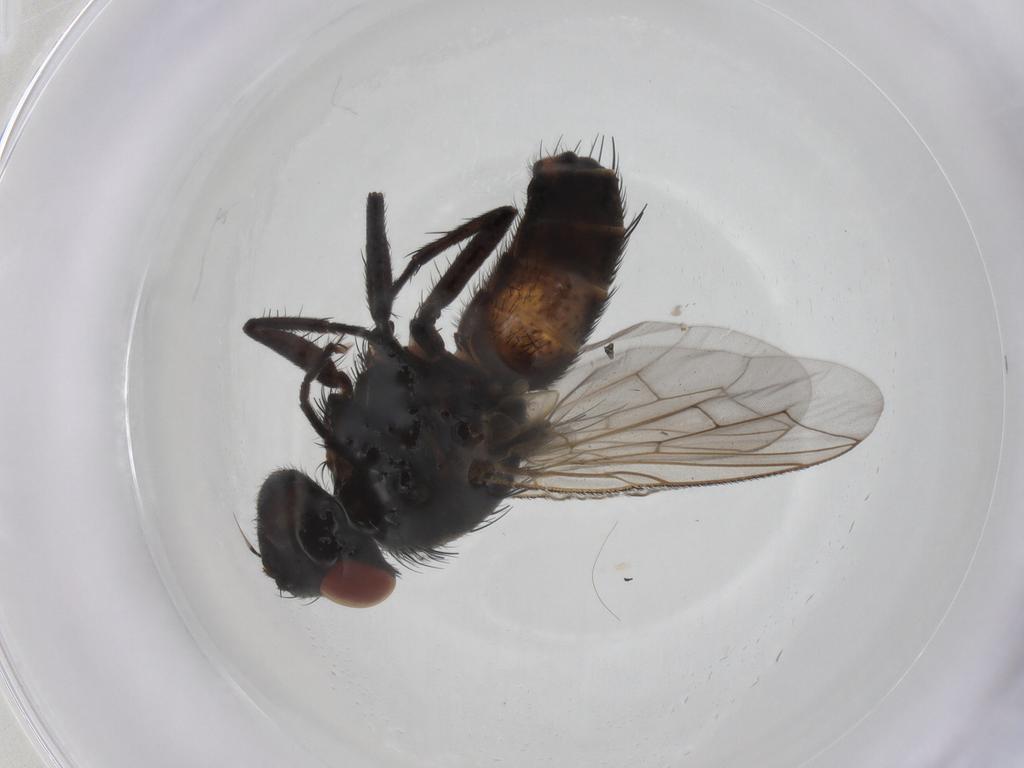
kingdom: Animalia
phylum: Arthropoda
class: Insecta
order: Diptera
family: Sarcophagidae
